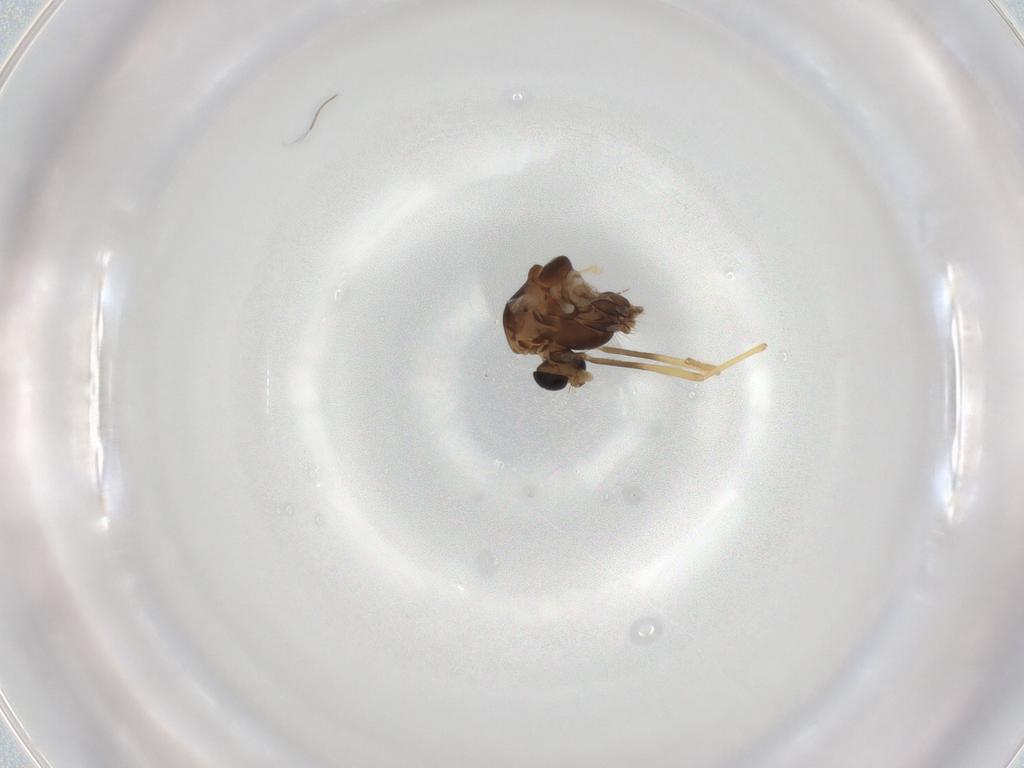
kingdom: Animalia
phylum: Arthropoda
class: Insecta
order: Diptera
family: Chironomidae
